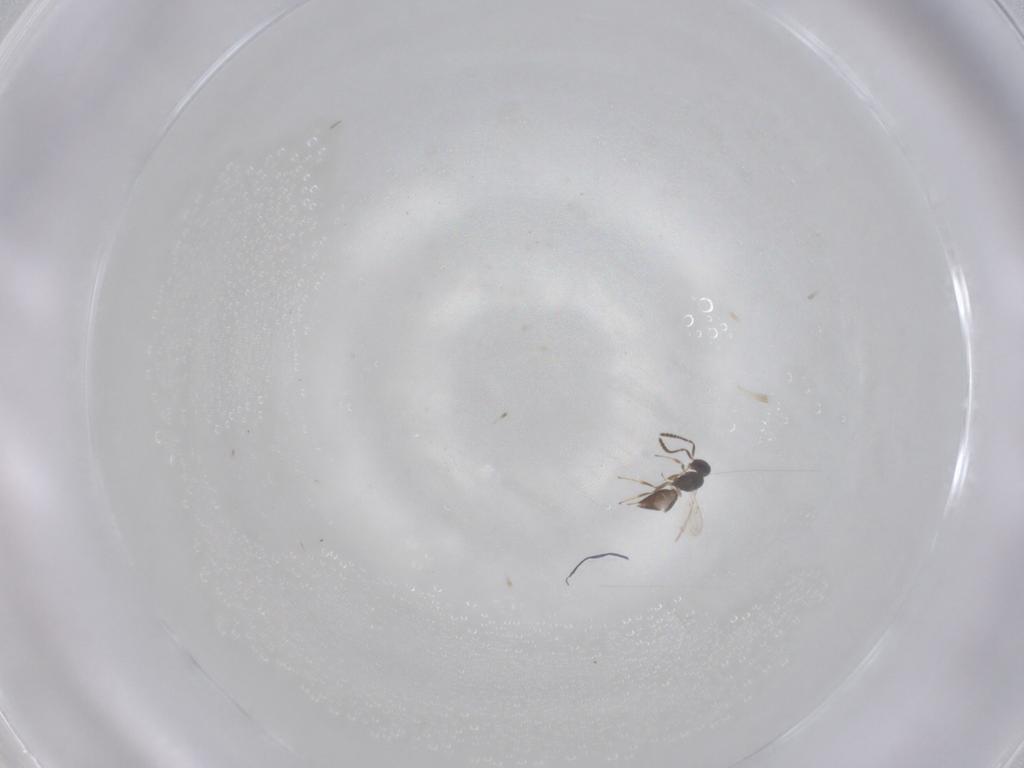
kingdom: Animalia
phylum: Arthropoda
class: Insecta
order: Hymenoptera
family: Scelionidae
